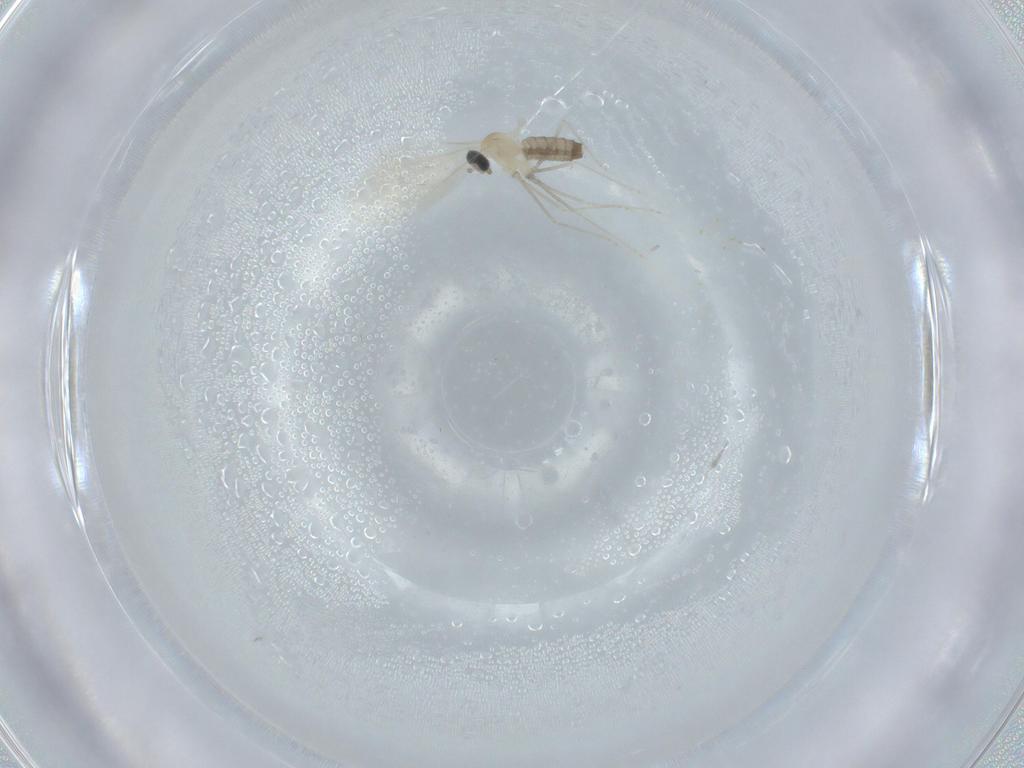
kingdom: Animalia
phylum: Arthropoda
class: Insecta
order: Diptera
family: Cecidomyiidae
